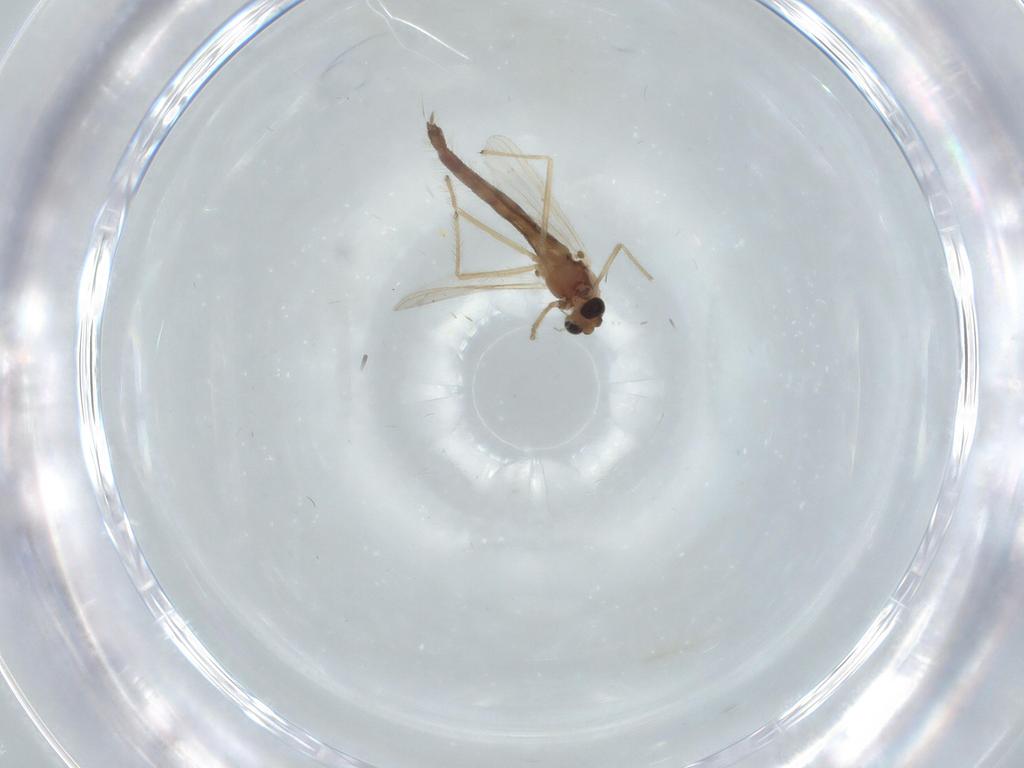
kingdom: Animalia
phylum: Arthropoda
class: Insecta
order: Diptera
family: Chironomidae
